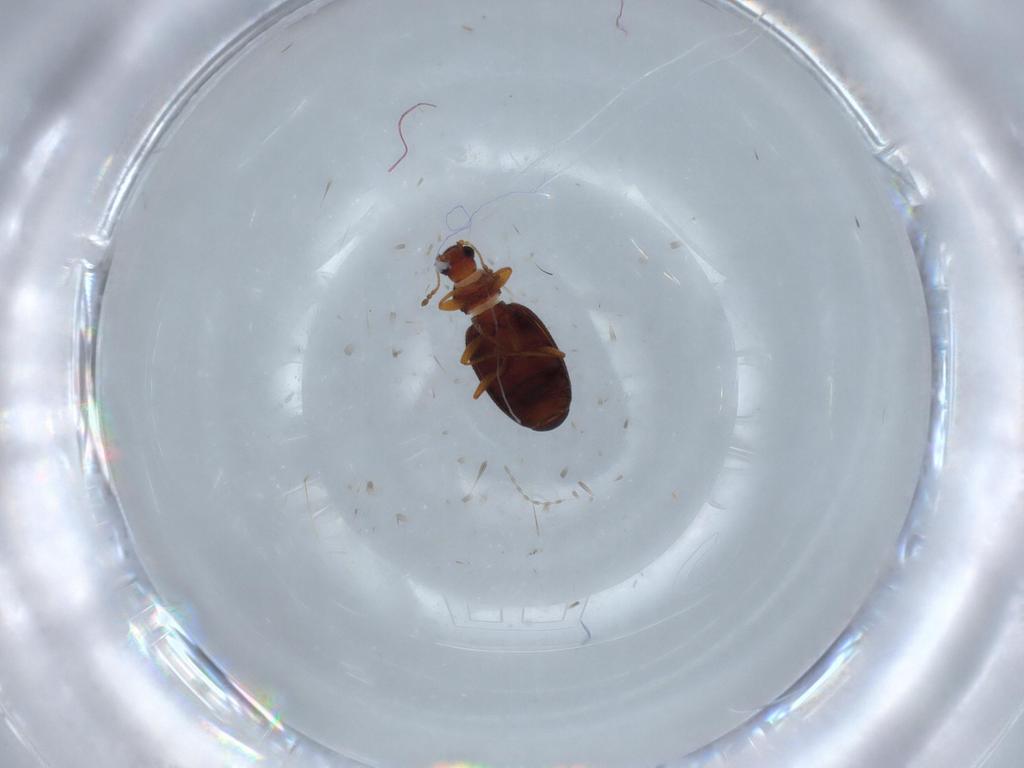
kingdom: Animalia
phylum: Arthropoda
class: Insecta
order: Coleoptera
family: Latridiidae
